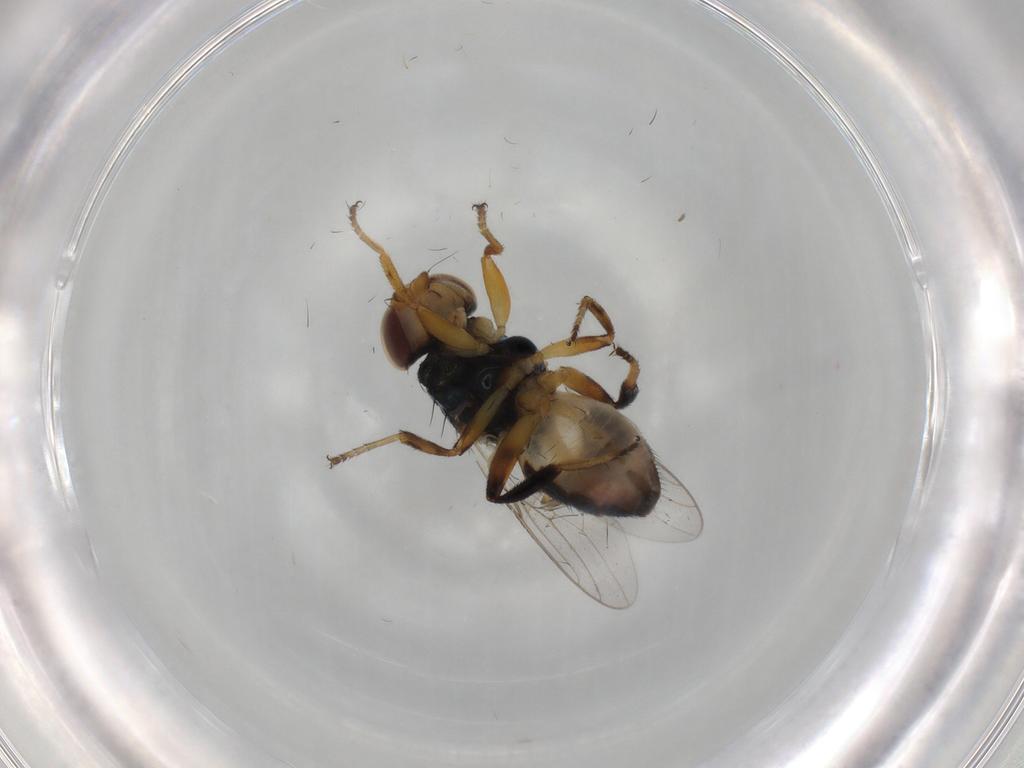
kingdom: Animalia
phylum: Arthropoda
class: Insecta
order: Diptera
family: Chloropidae
